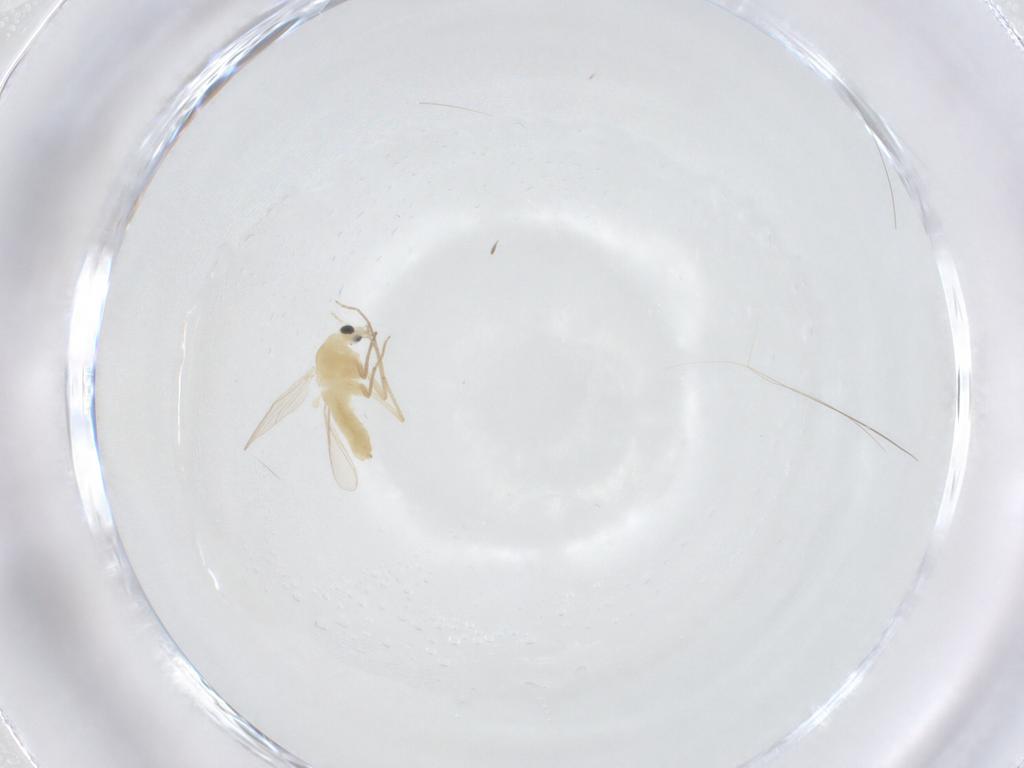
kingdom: Animalia
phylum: Arthropoda
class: Insecta
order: Diptera
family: Chironomidae
